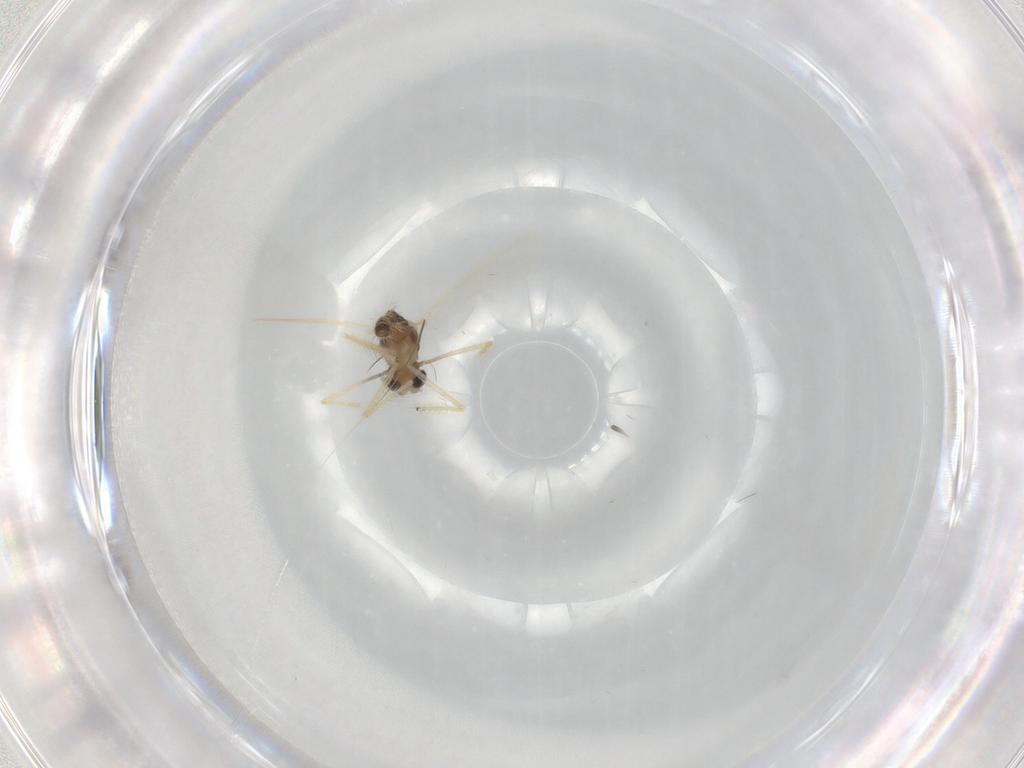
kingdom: Animalia
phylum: Arthropoda
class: Insecta
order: Diptera
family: Chironomidae
